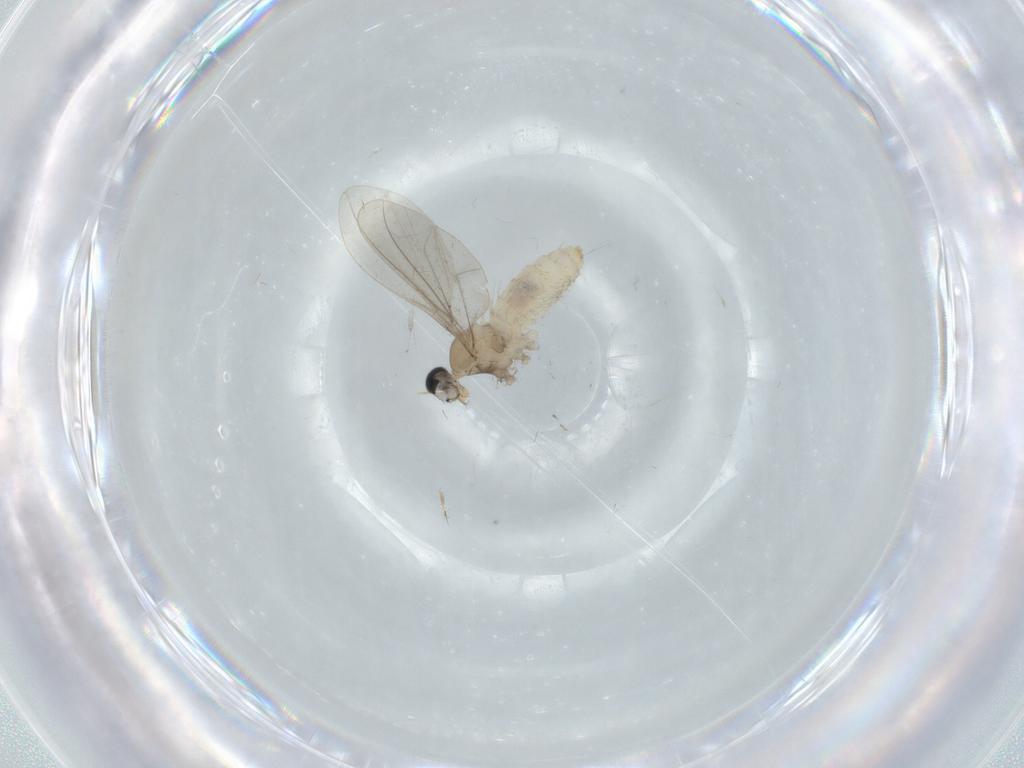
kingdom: Animalia
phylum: Arthropoda
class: Insecta
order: Diptera
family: Cecidomyiidae
